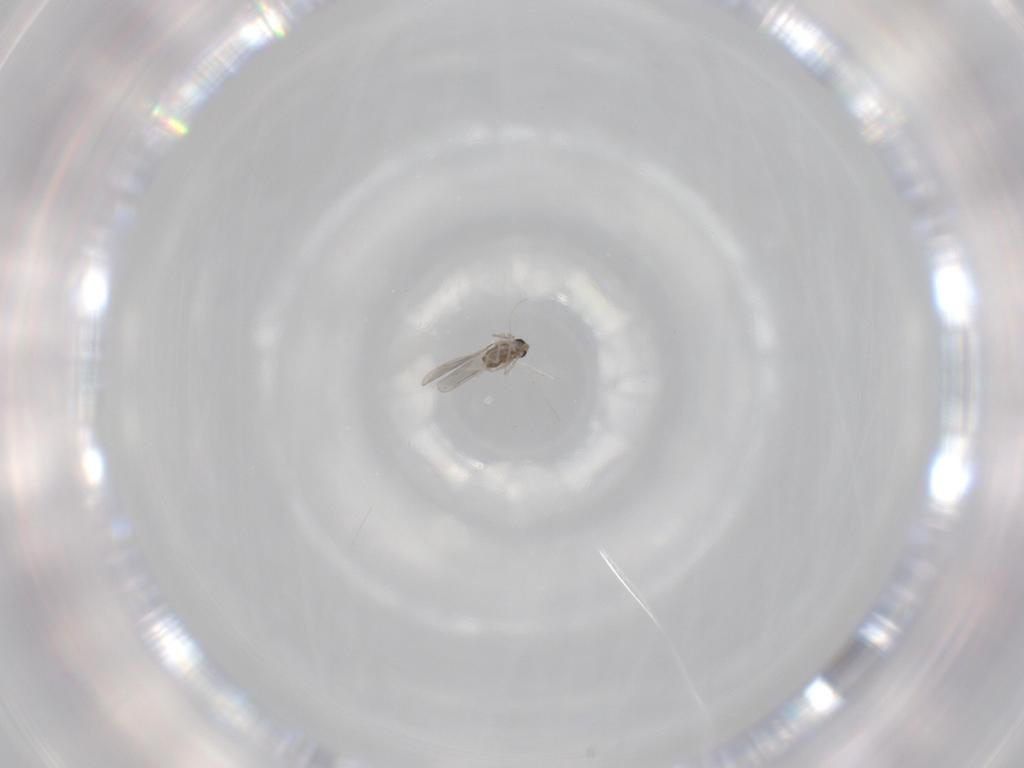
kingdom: Animalia
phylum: Arthropoda
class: Insecta
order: Diptera
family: Cecidomyiidae
